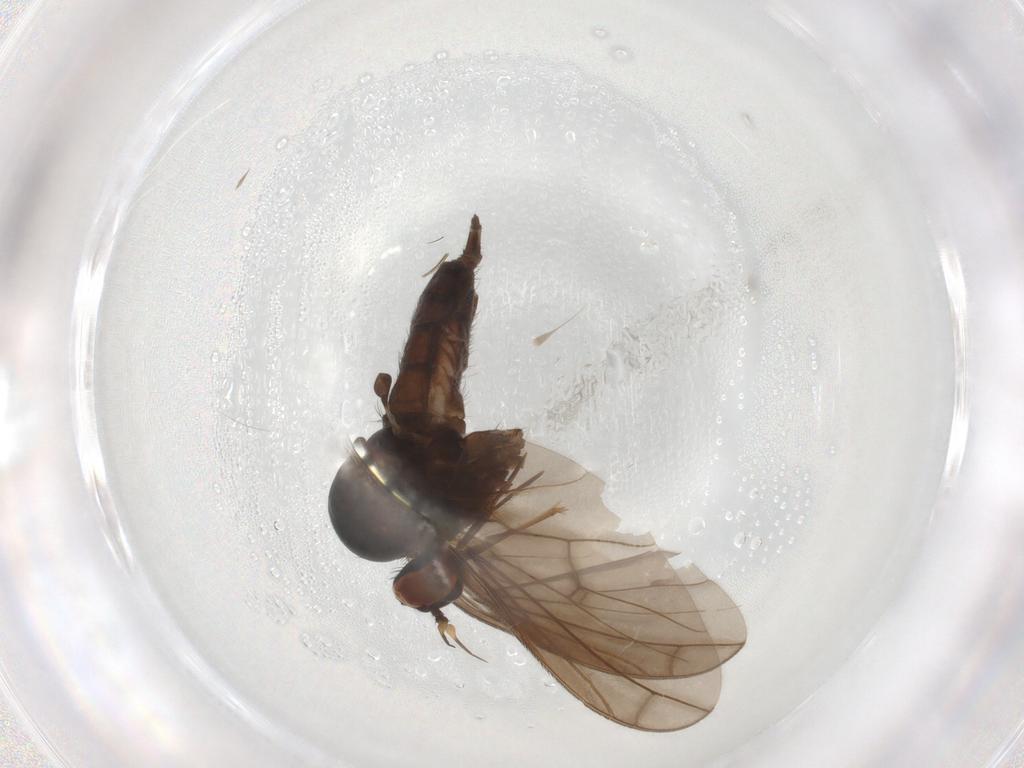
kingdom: Animalia
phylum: Arthropoda
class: Insecta
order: Diptera
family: Empididae
